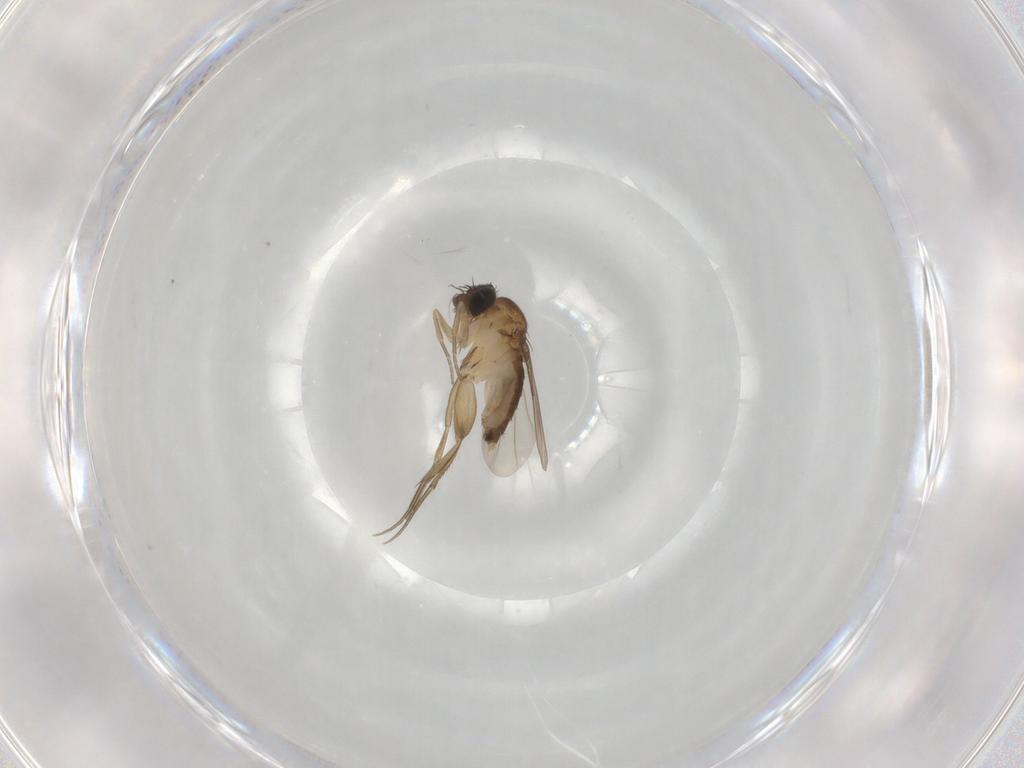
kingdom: Animalia
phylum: Arthropoda
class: Insecta
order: Diptera
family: Phoridae
